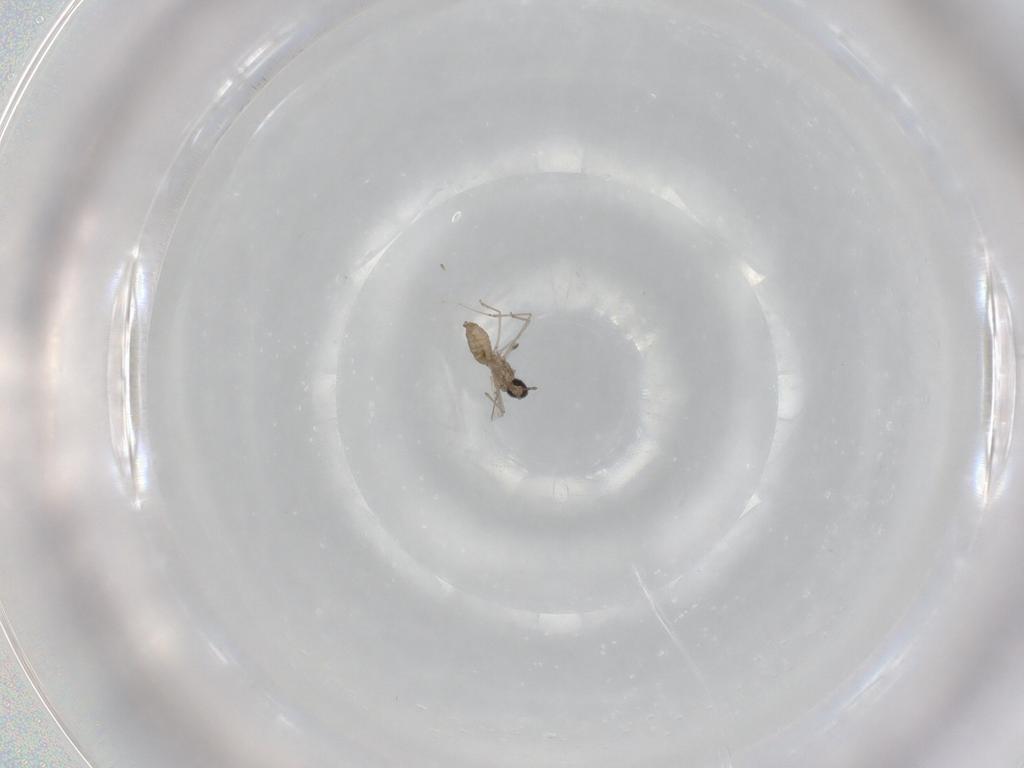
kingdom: Animalia
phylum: Arthropoda
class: Insecta
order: Diptera
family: Cecidomyiidae
